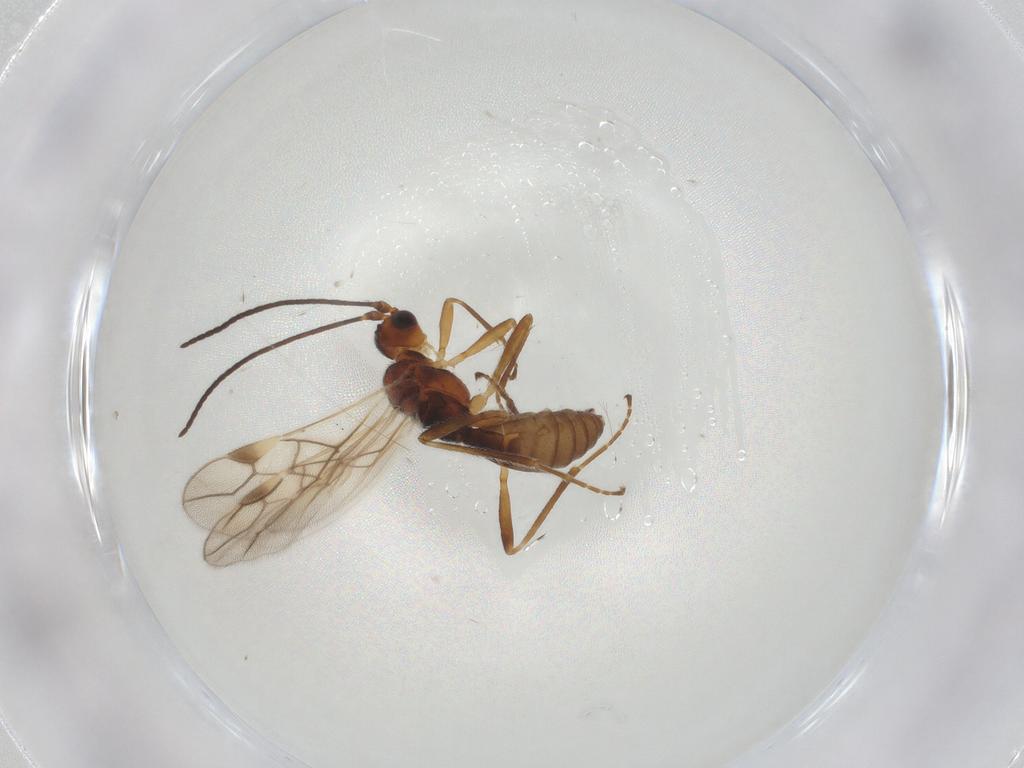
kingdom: Animalia
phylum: Arthropoda
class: Insecta
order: Hymenoptera
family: Braconidae
